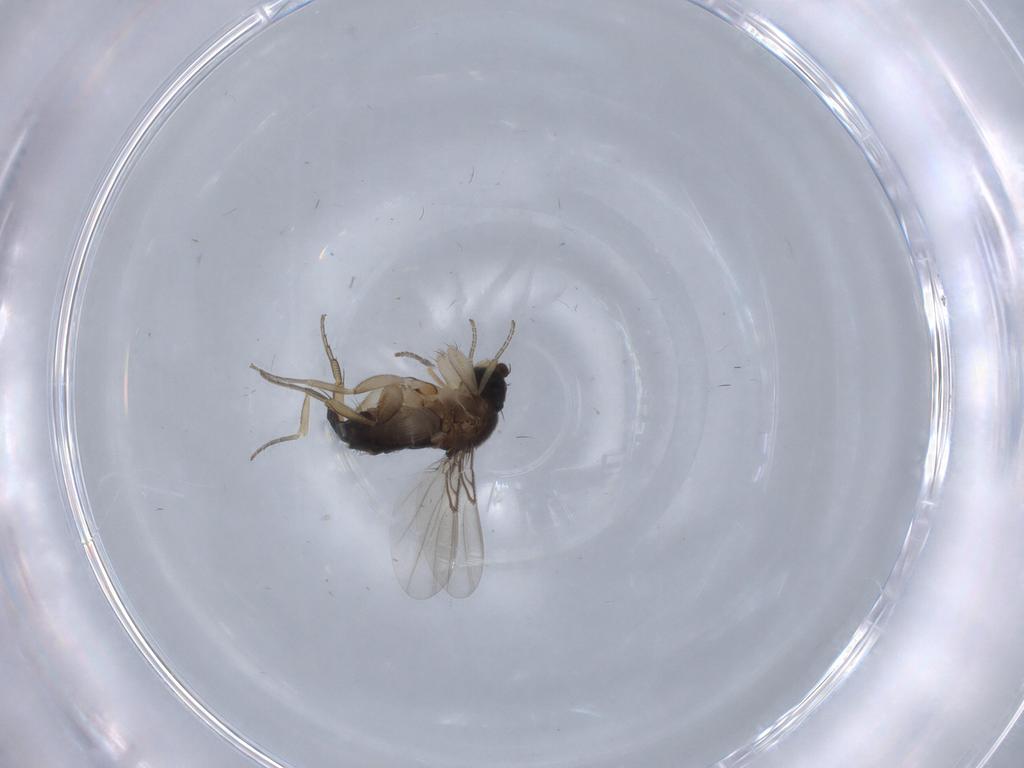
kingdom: Animalia
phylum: Arthropoda
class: Insecta
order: Diptera
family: Phoridae
